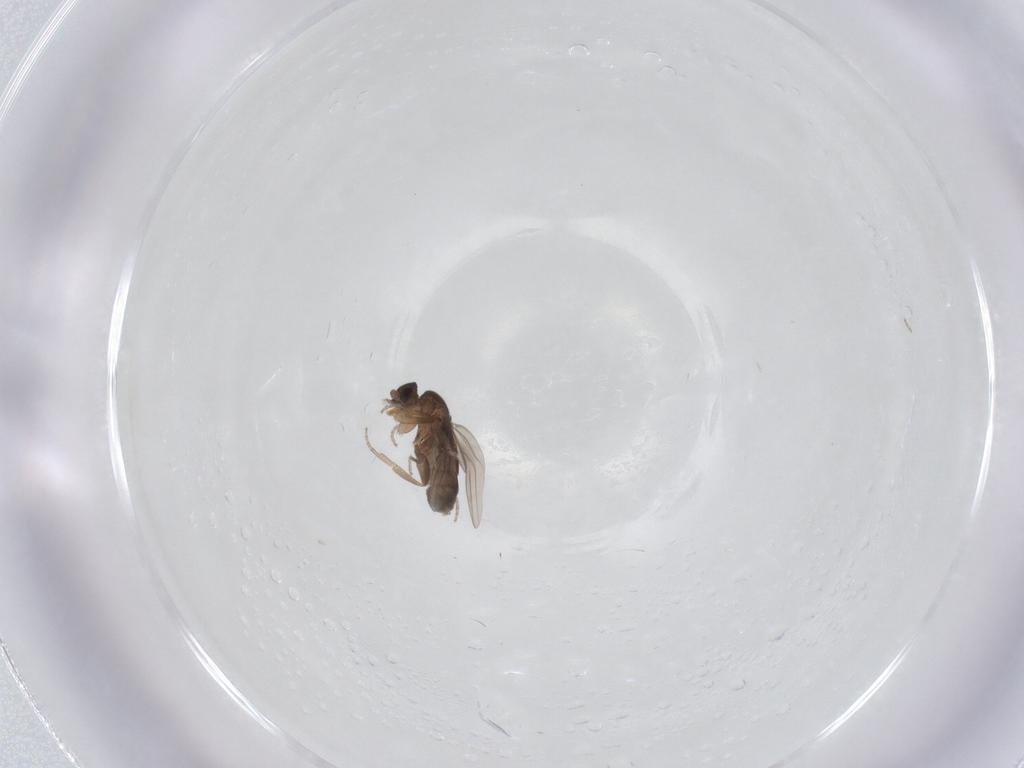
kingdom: Animalia
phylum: Arthropoda
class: Insecta
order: Diptera
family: Phoridae
